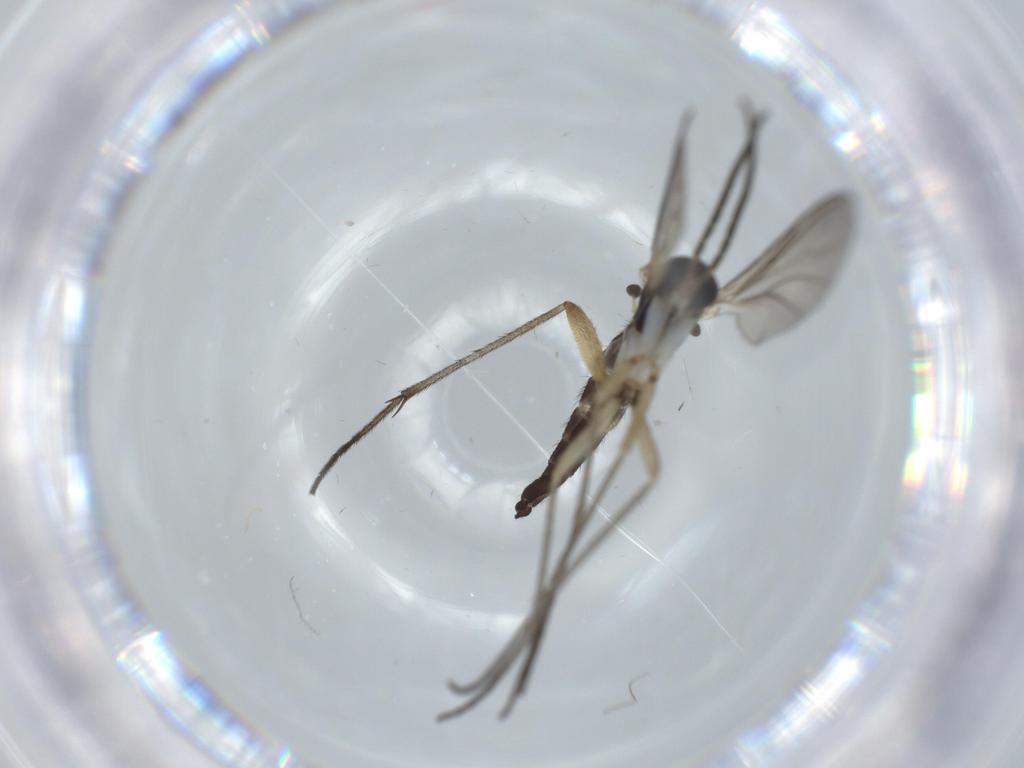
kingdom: Animalia
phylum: Arthropoda
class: Insecta
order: Diptera
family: Sciaridae
